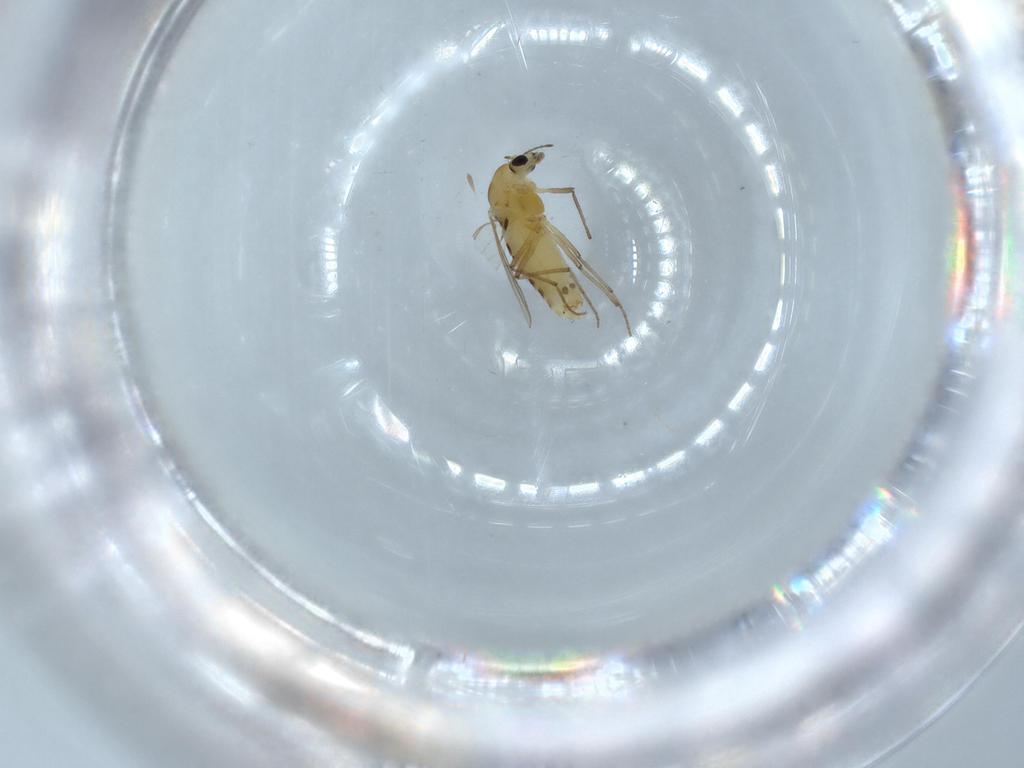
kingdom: Animalia
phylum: Arthropoda
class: Insecta
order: Diptera
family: Chironomidae
